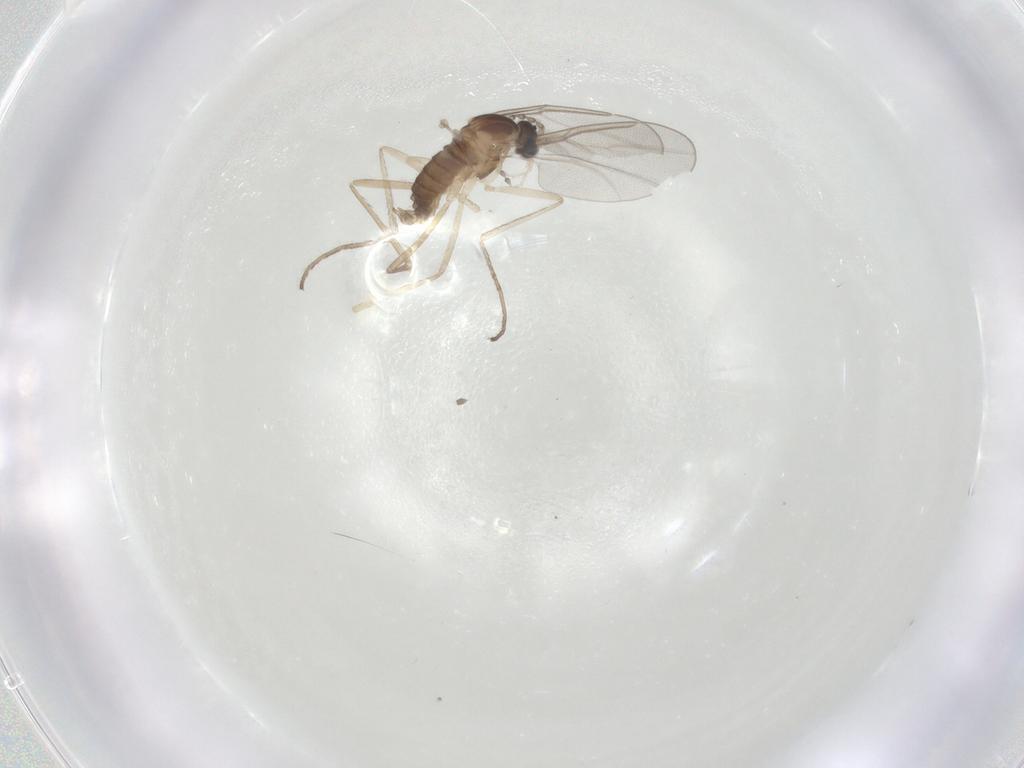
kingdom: Animalia
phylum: Arthropoda
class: Insecta
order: Diptera
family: Cecidomyiidae
